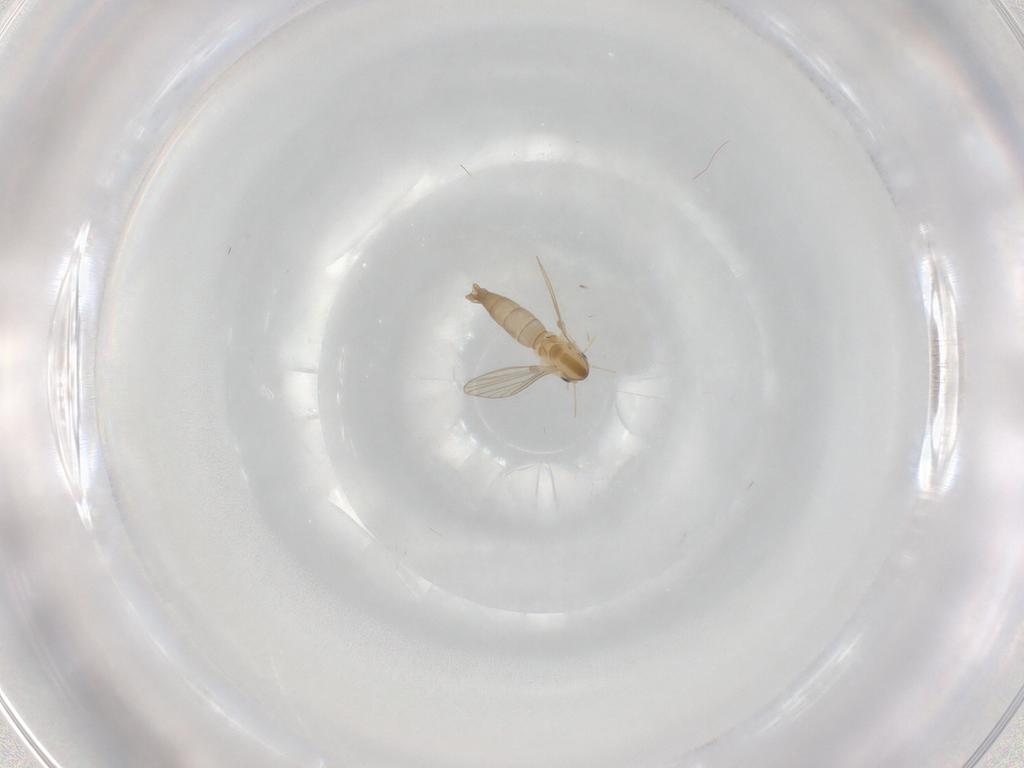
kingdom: Animalia
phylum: Arthropoda
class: Insecta
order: Diptera
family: Psychodidae
